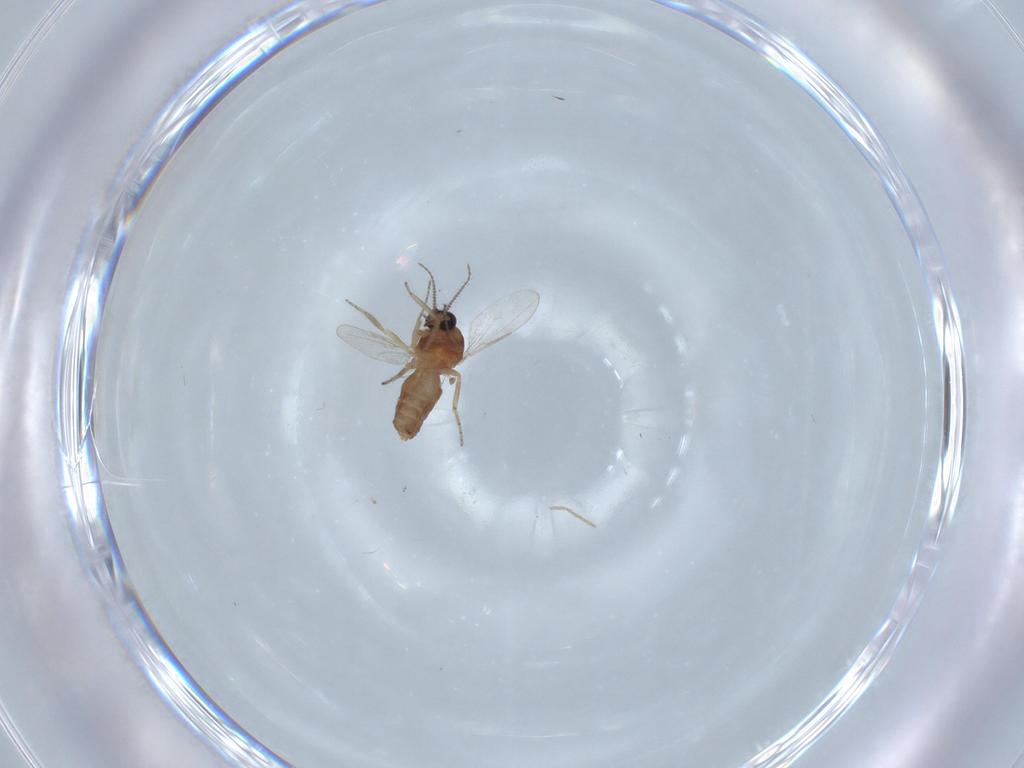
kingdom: Animalia
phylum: Arthropoda
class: Insecta
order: Diptera
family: Ceratopogonidae
